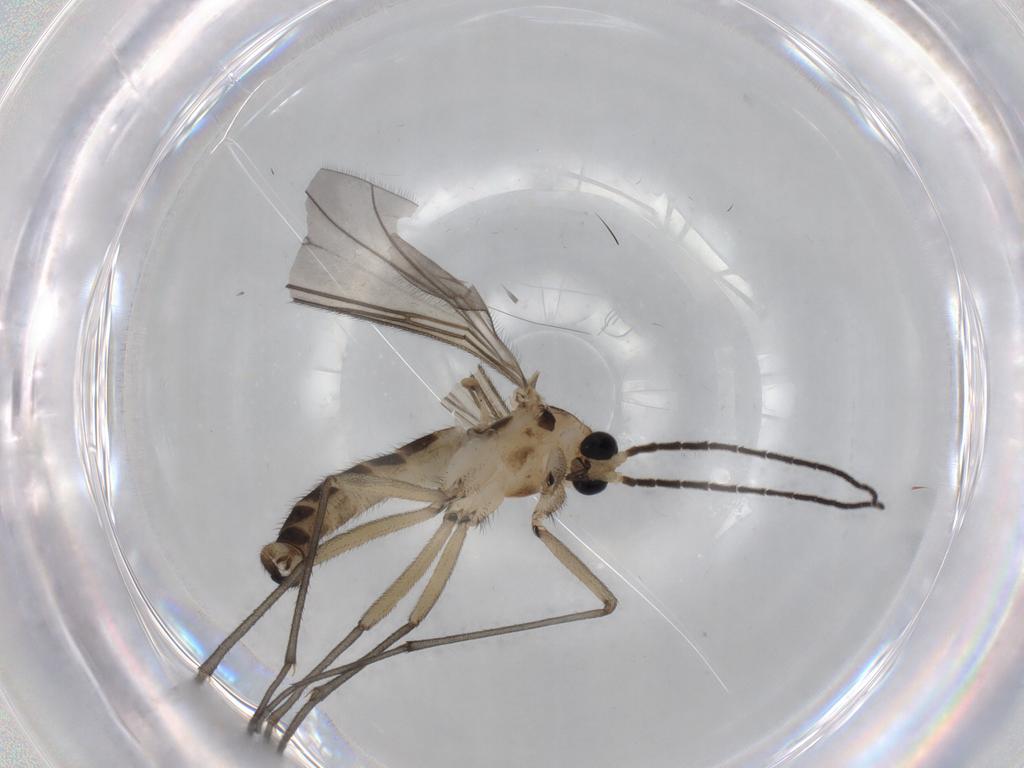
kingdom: Animalia
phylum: Arthropoda
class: Insecta
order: Diptera
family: Sciaridae
